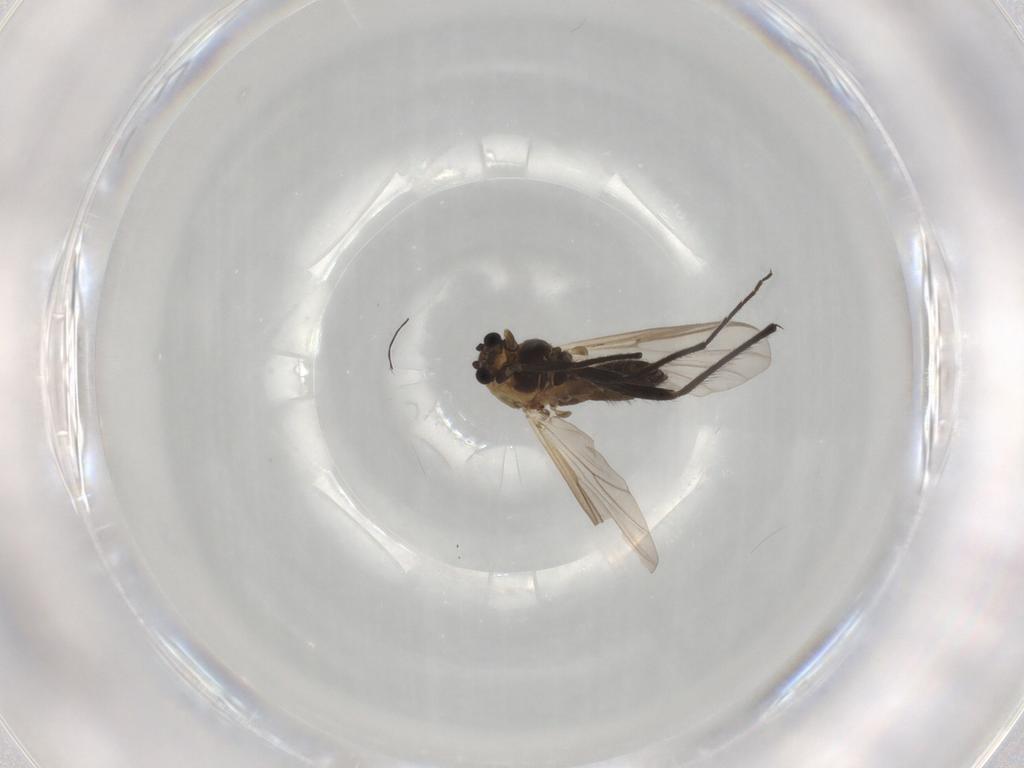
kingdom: Animalia
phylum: Arthropoda
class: Insecta
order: Diptera
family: Chironomidae
